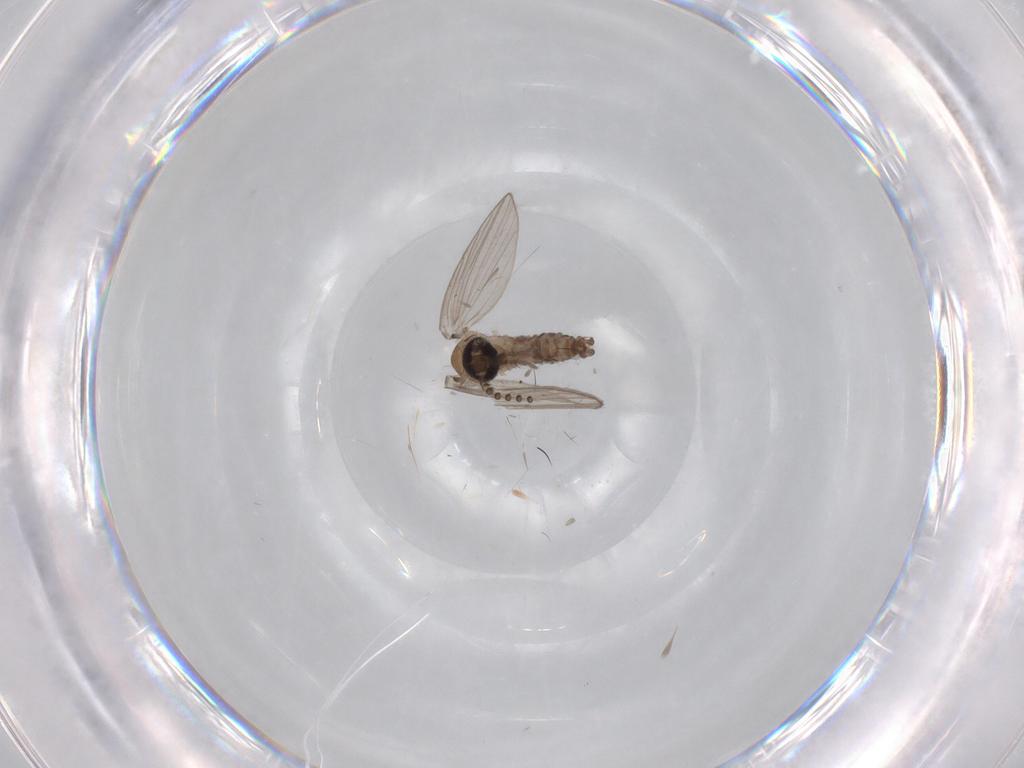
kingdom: Animalia
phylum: Arthropoda
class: Insecta
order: Diptera
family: Psychodidae
